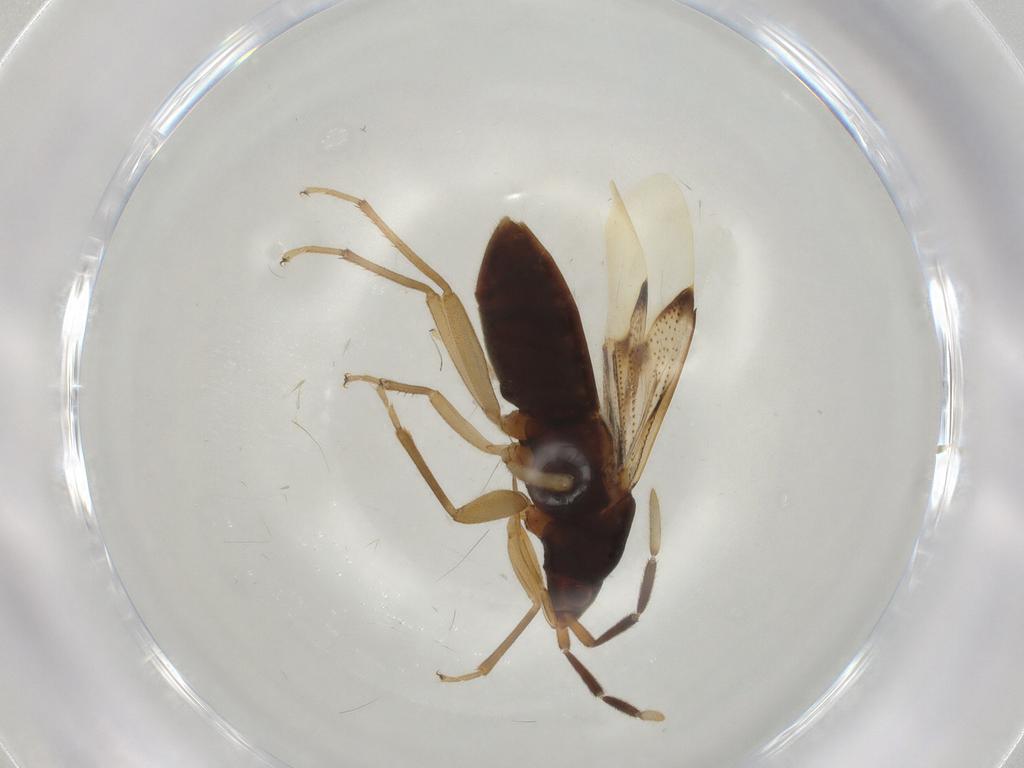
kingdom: Animalia
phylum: Arthropoda
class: Insecta
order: Hemiptera
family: Rhyparochromidae
